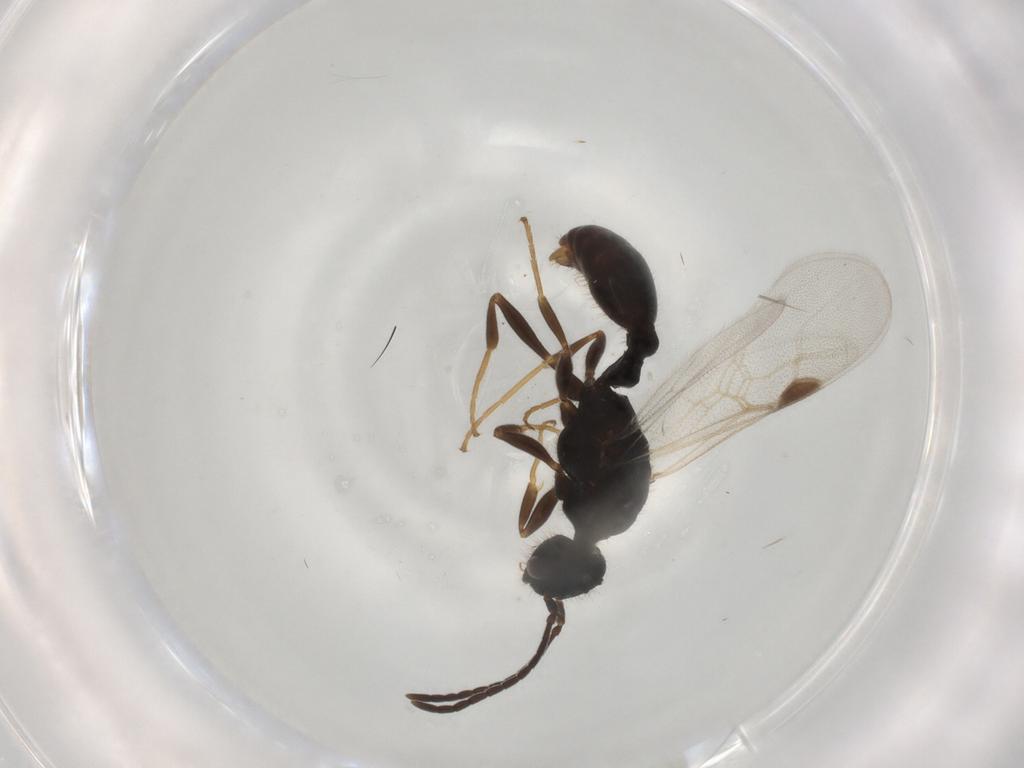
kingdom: Animalia
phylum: Arthropoda
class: Insecta
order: Hymenoptera
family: Formicidae
